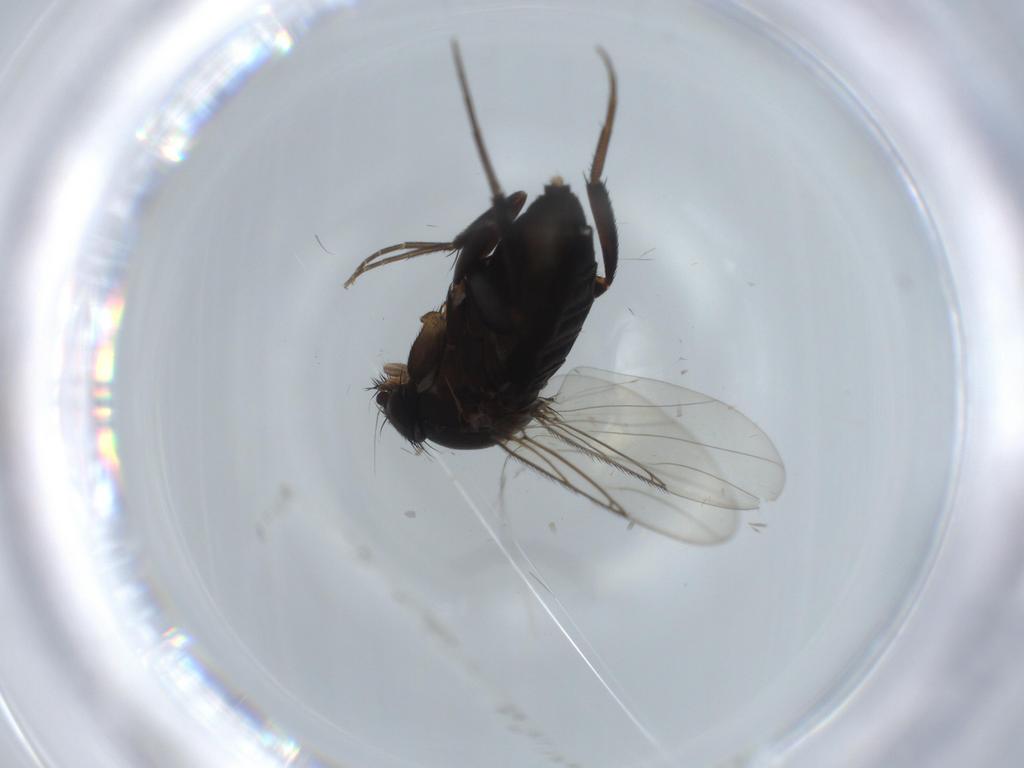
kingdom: Animalia
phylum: Arthropoda
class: Insecta
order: Diptera
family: Phoridae
